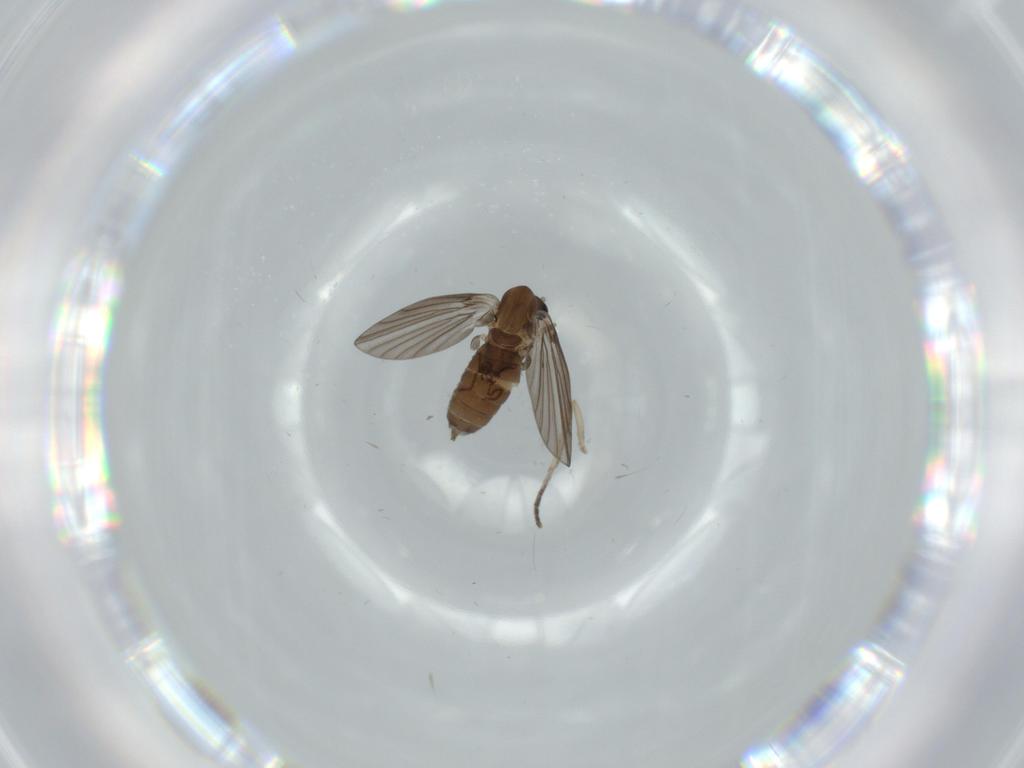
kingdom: Animalia
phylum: Arthropoda
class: Insecta
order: Diptera
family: Psychodidae
